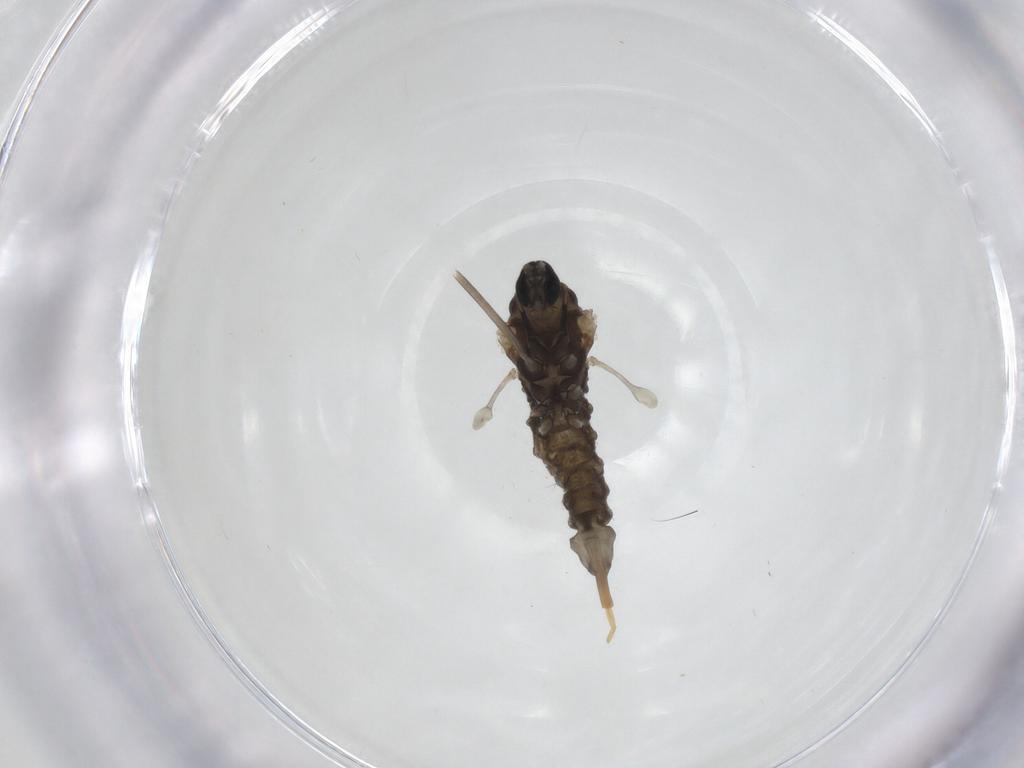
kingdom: Animalia
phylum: Arthropoda
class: Insecta
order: Diptera
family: Cecidomyiidae
